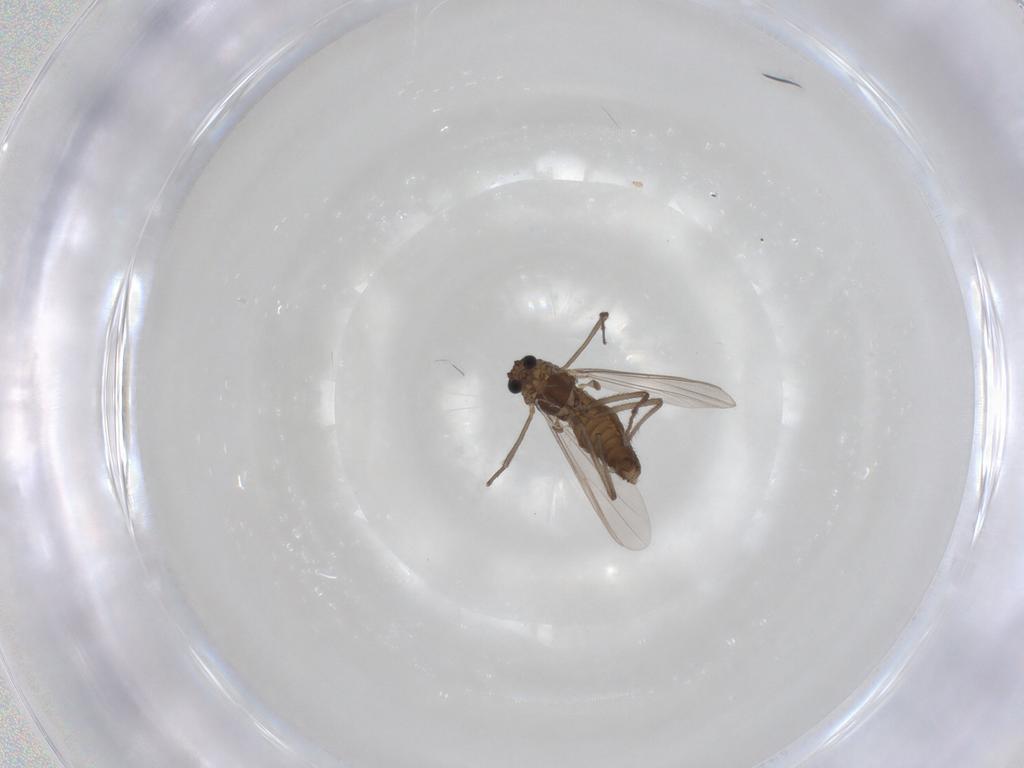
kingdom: Animalia
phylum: Arthropoda
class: Insecta
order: Diptera
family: Chironomidae
